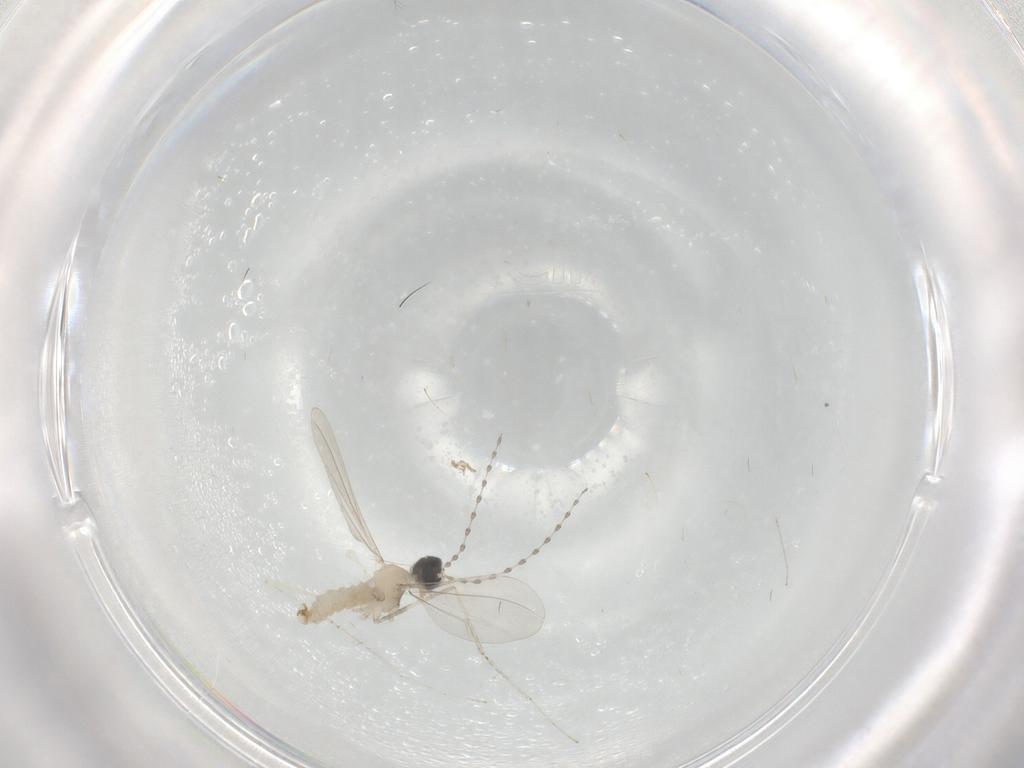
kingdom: Animalia
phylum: Arthropoda
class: Insecta
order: Diptera
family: Cecidomyiidae
